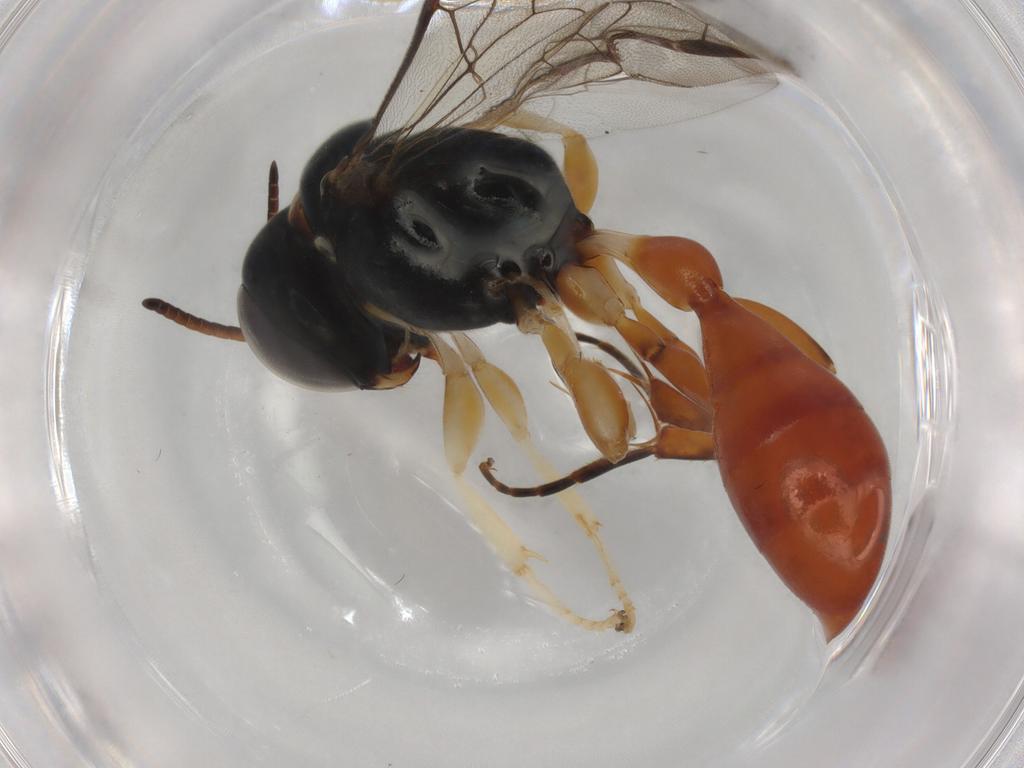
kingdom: Animalia
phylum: Arthropoda
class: Insecta
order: Hymenoptera
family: Crabronidae
